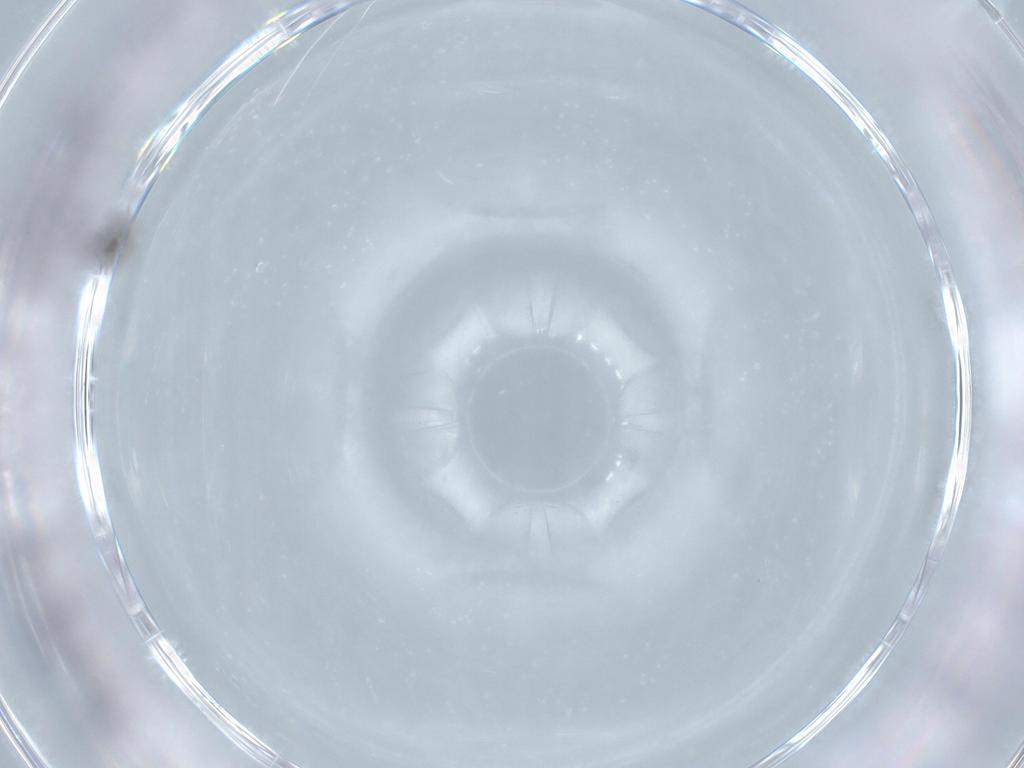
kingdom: Animalia
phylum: Arthropoda
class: Insecta
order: Thysanoptera
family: Thripidae
